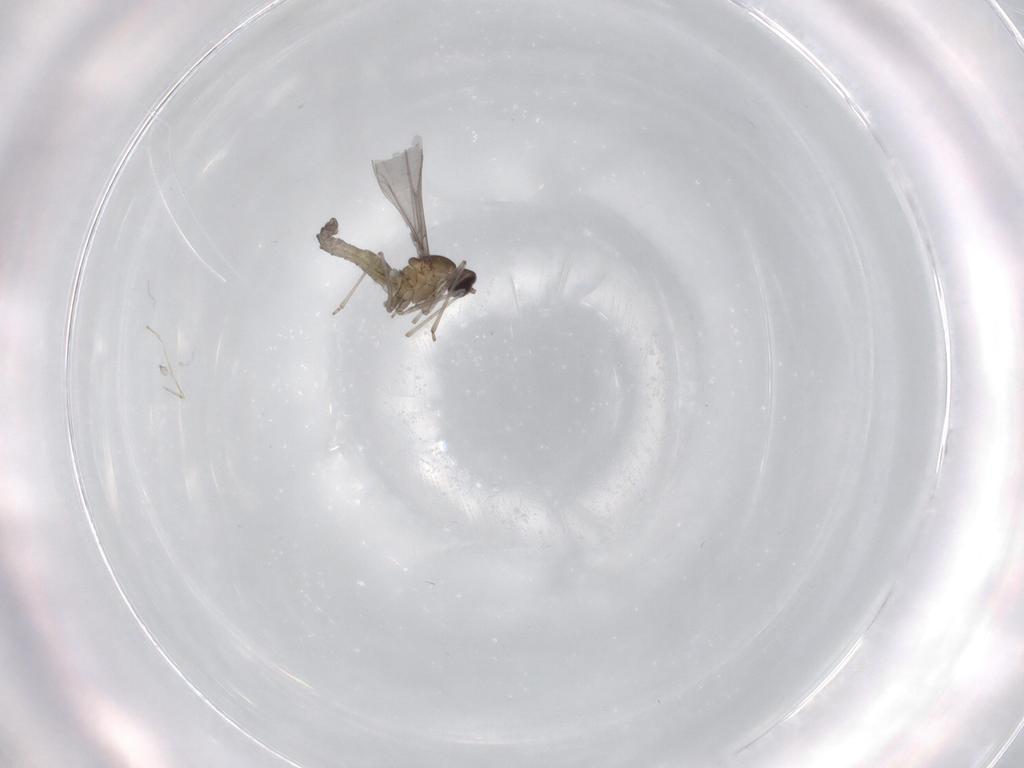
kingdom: Animalia
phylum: Arthropoda
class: Insecta
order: Diptera
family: Cecidomyiidae
